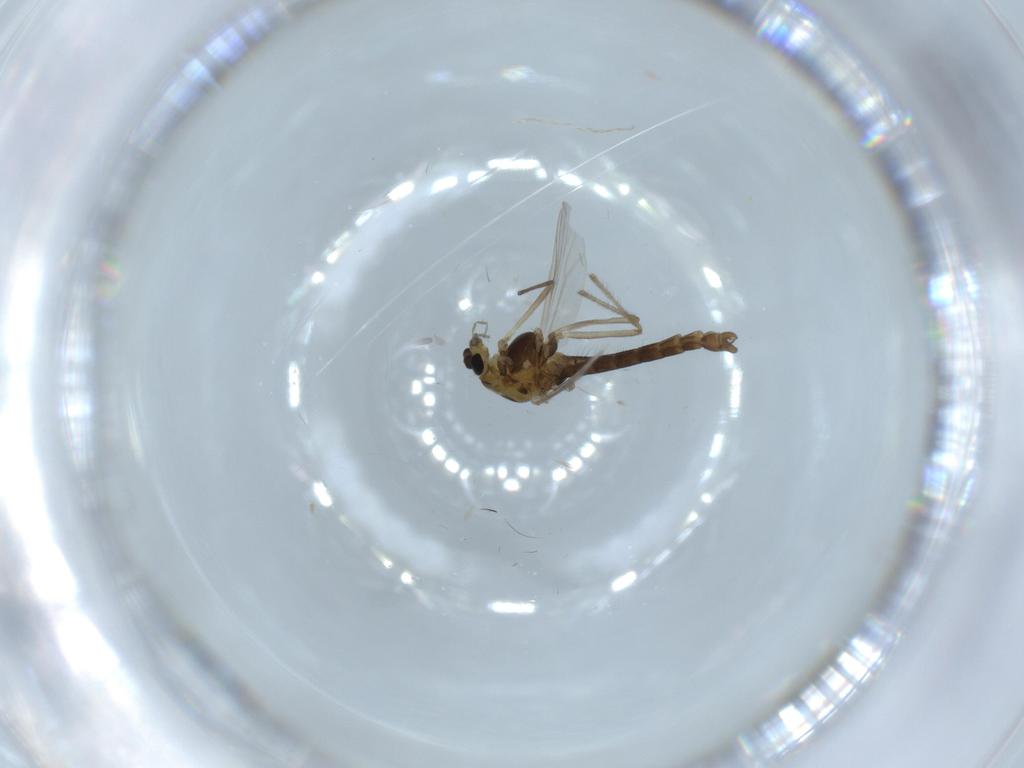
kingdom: Animalia
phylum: Arthropoda
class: Insecta
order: Diptera
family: Chironomidae
